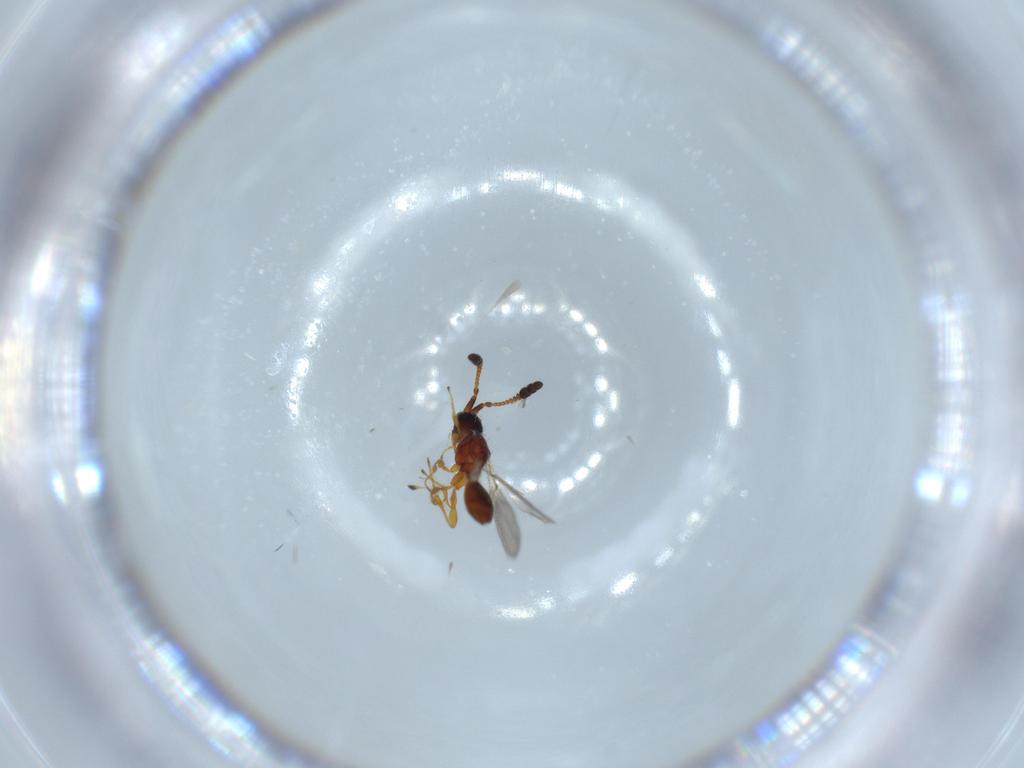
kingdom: Animalia
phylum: Arthropoda
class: Insecta
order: Hymenoptera
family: Diapriidae
